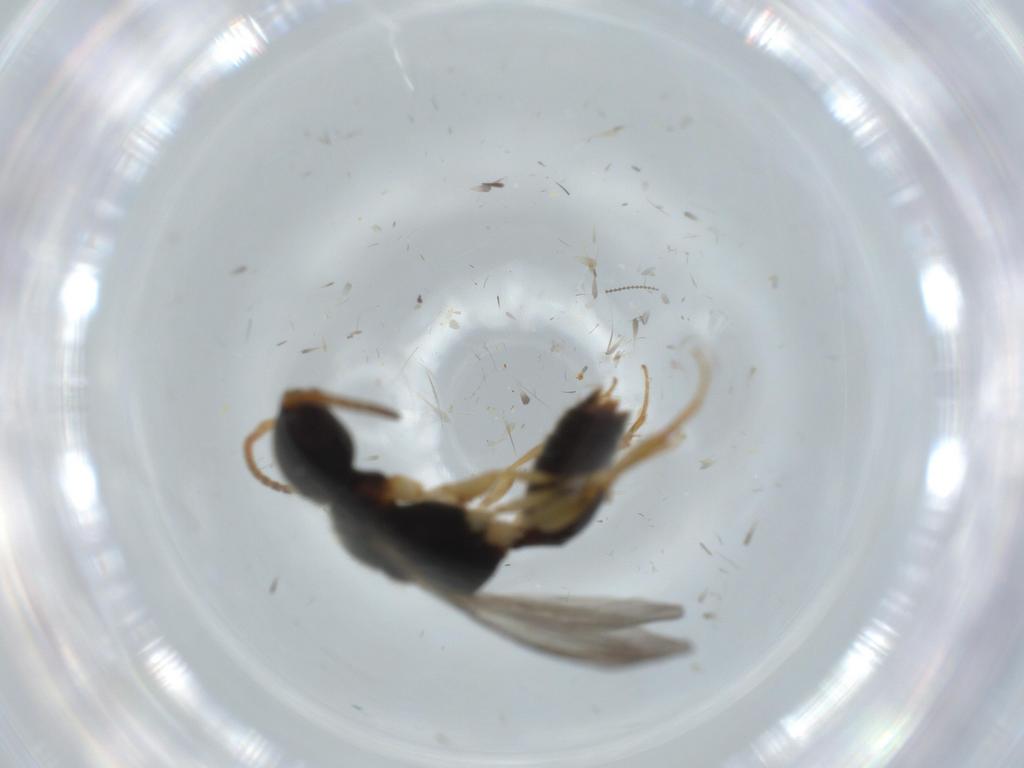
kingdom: Animalia
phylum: Arthropoda
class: Insecta
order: Hymenoptera
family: Bethylidae
